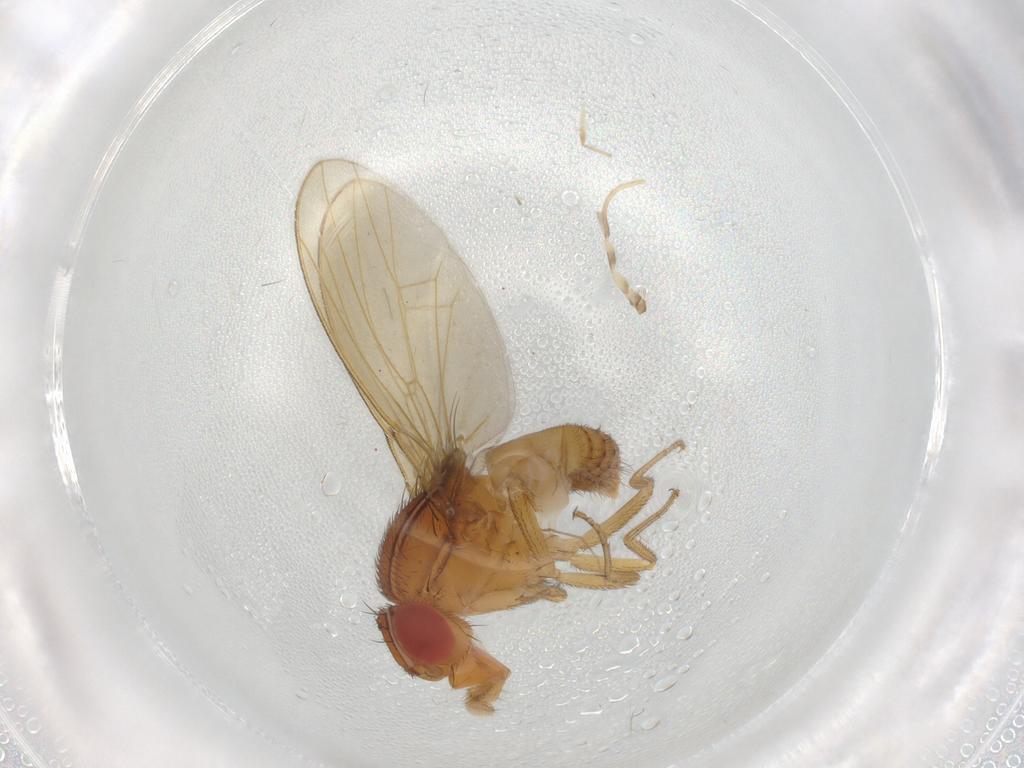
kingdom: Animalia
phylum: Arthropoda
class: Insecta
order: Diptera
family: Drosophilidae
